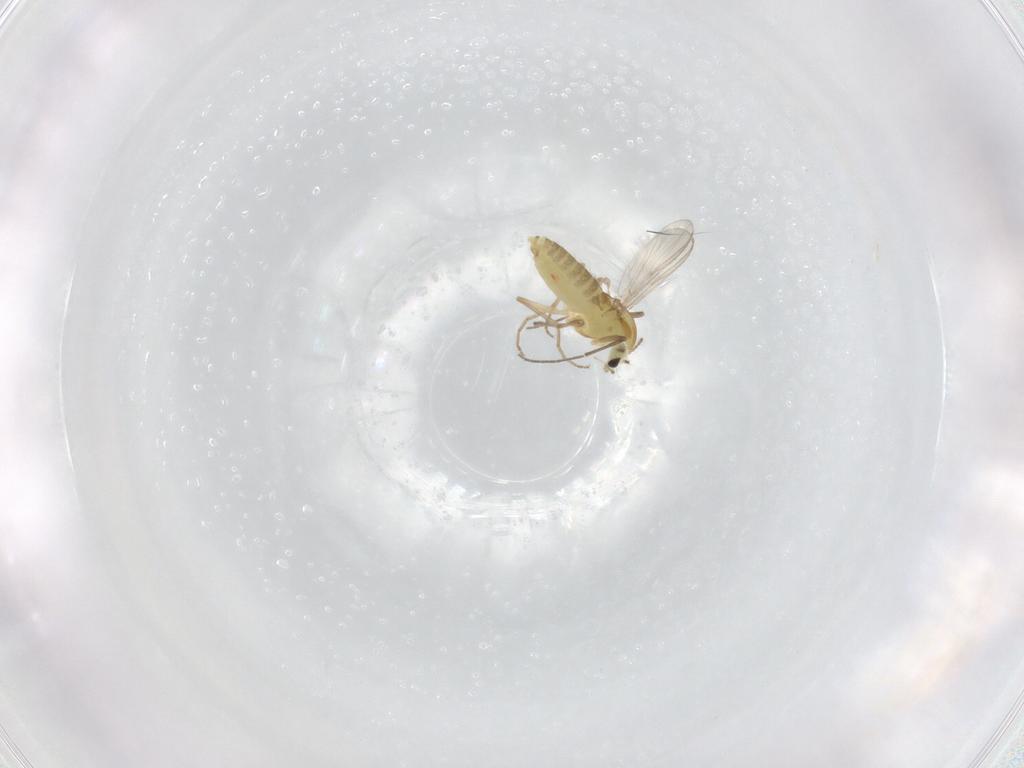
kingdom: Animalia
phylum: Arthropoda
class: Insecta
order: Diptera
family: Chironomidae
